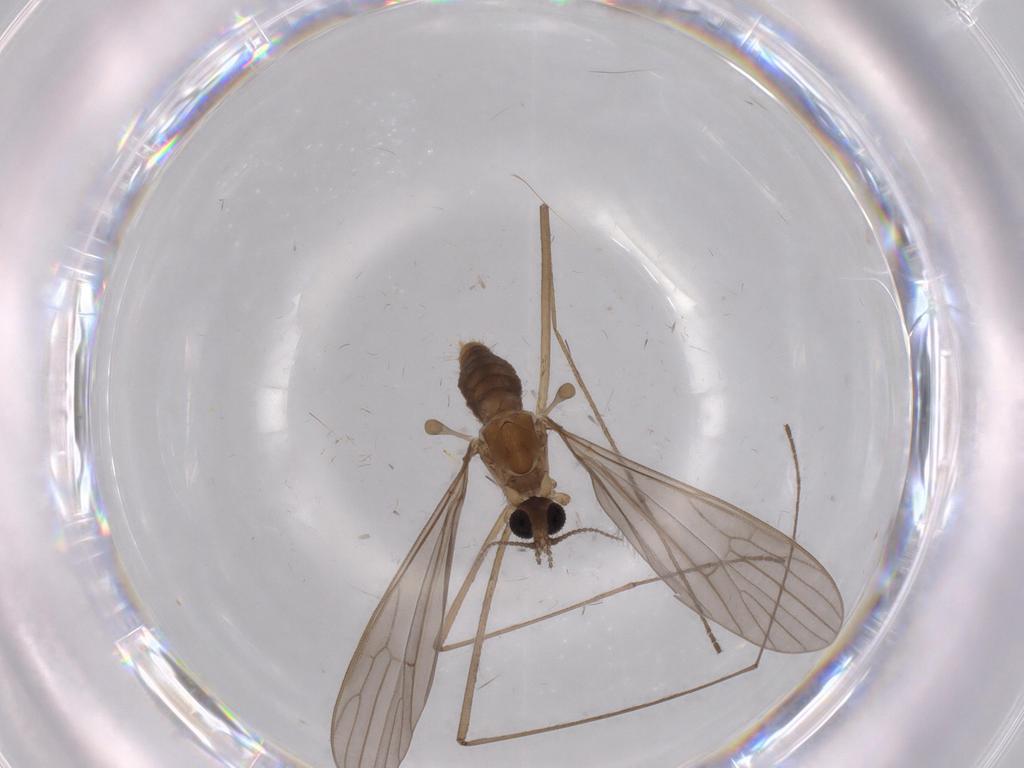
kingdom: Animalia
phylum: Arthropoda
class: Insecta
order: Diptera
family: Limoniidae
